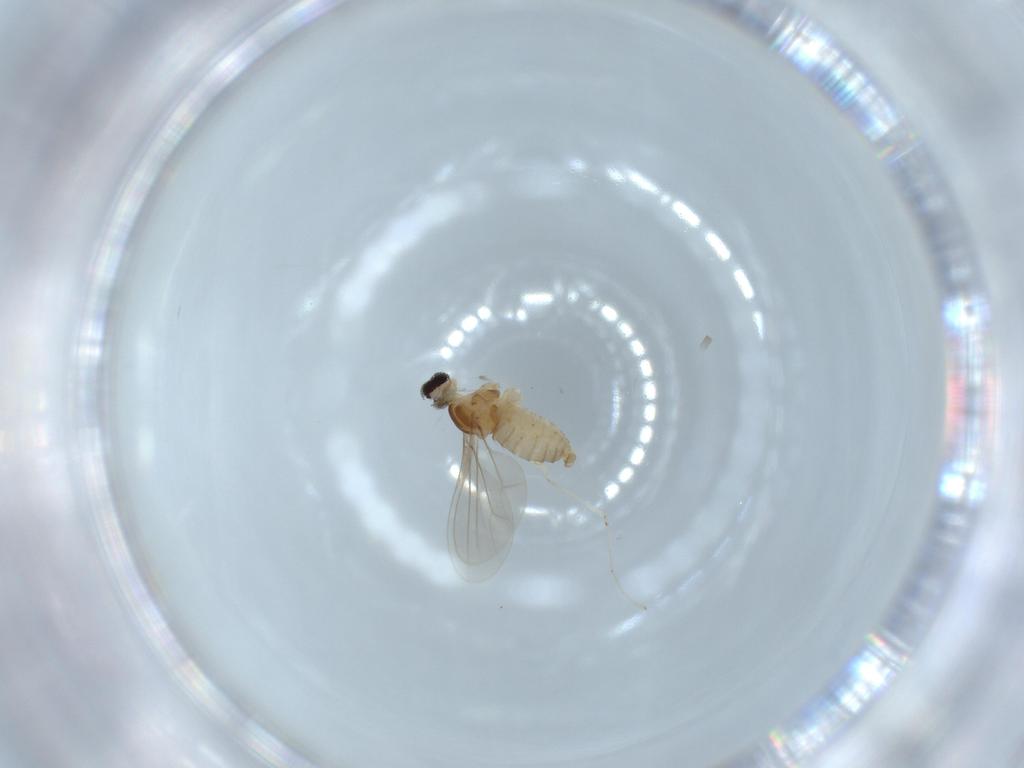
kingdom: Animalia
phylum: Arthropoda
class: Insecta
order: Diptera
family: Cecidomyiidae
